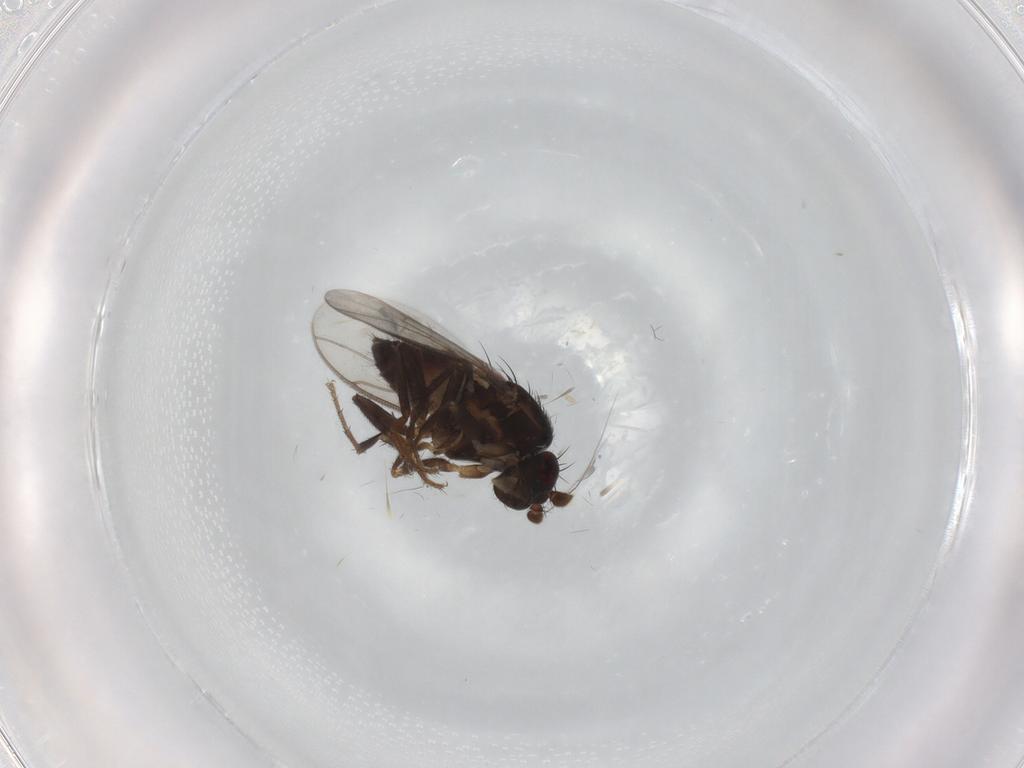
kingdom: Animalia
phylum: Arthropoda
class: Insecta
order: Diptera
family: Sphaeroceridae
